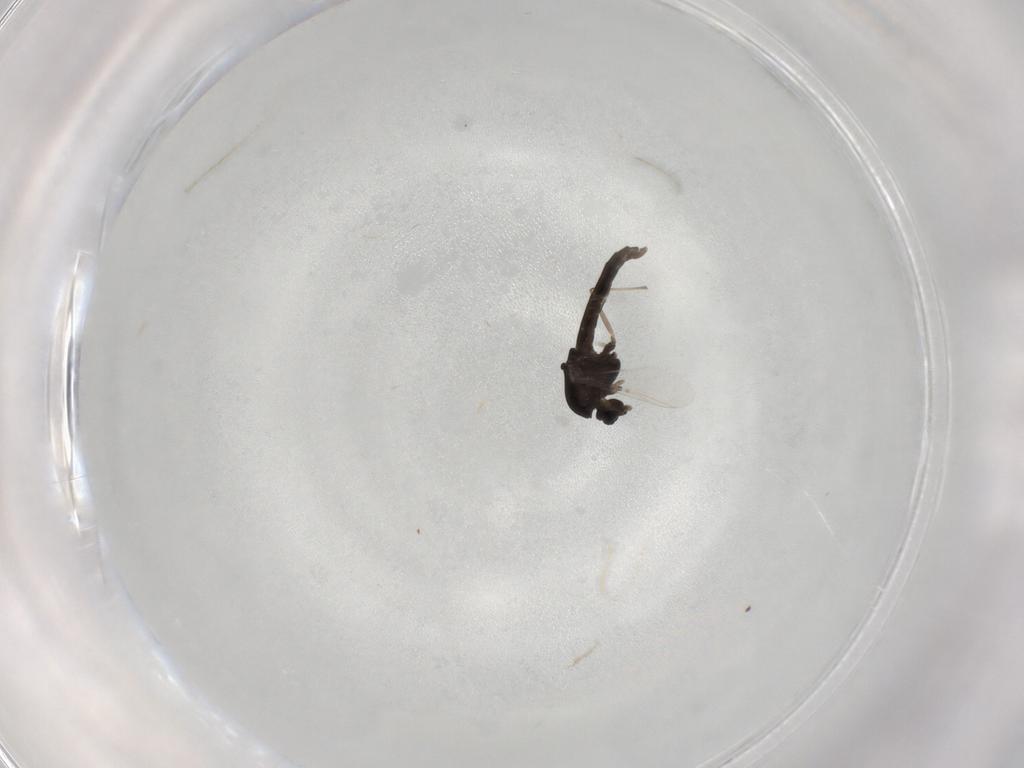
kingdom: Animalia
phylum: Arthropoda
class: Insecta
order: Diptera
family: Chironomidae
